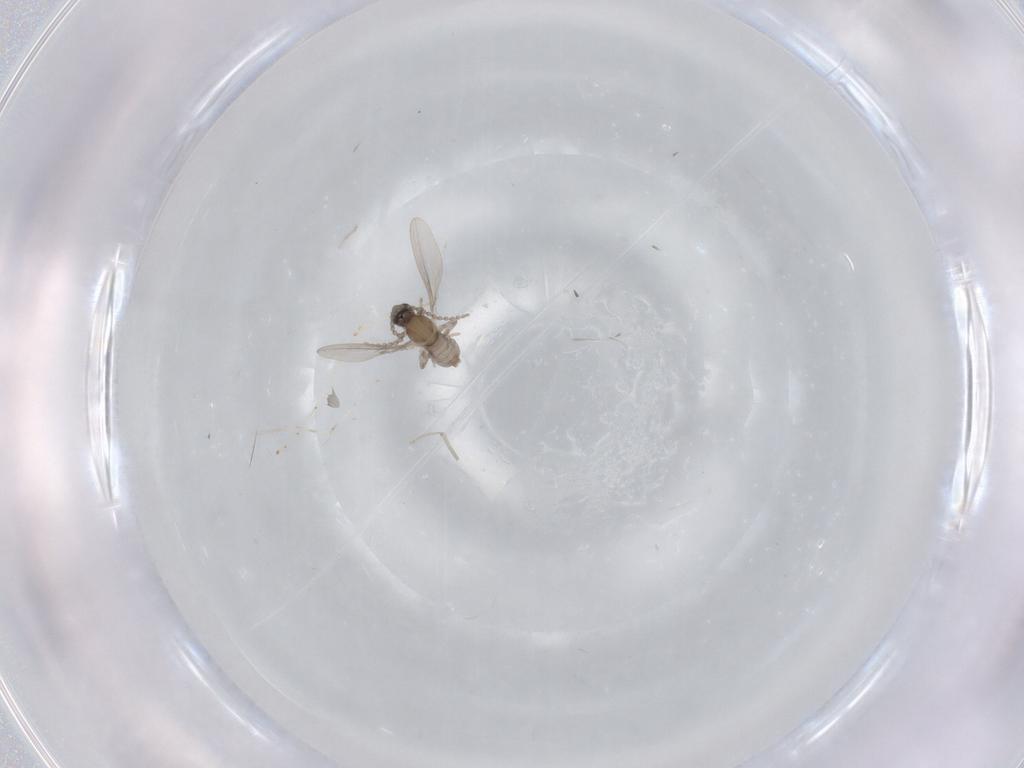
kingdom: Animalia
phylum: Arthropoda
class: Insecta
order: Diptera
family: Cecidomyiidae
